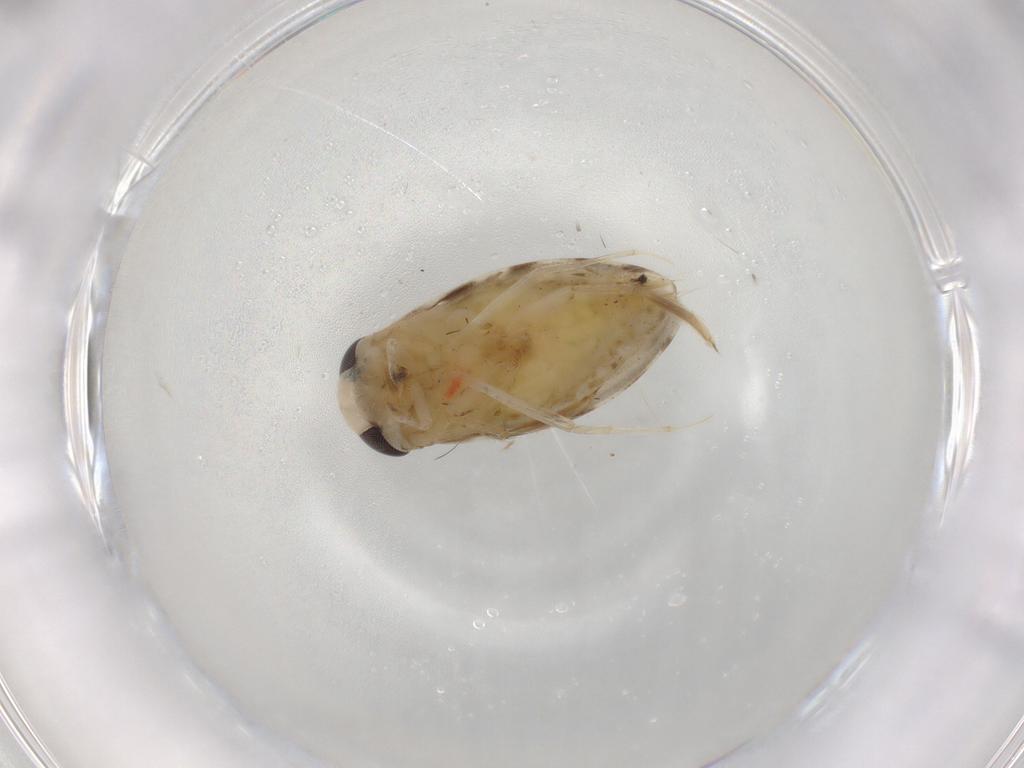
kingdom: Animalia
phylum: Arthropoda
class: Insecta
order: Hemiptera
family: Corixidae
